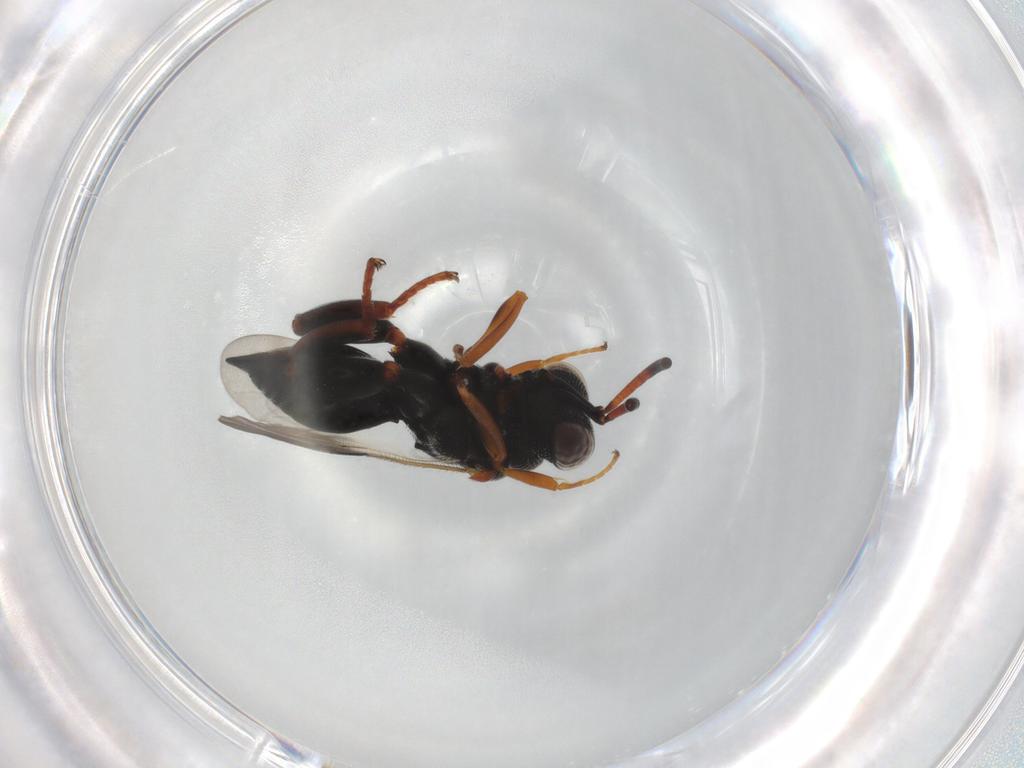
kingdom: Animalia
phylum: Arthropoda
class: Insecta
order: Hymenoptera
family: Chalcididae
